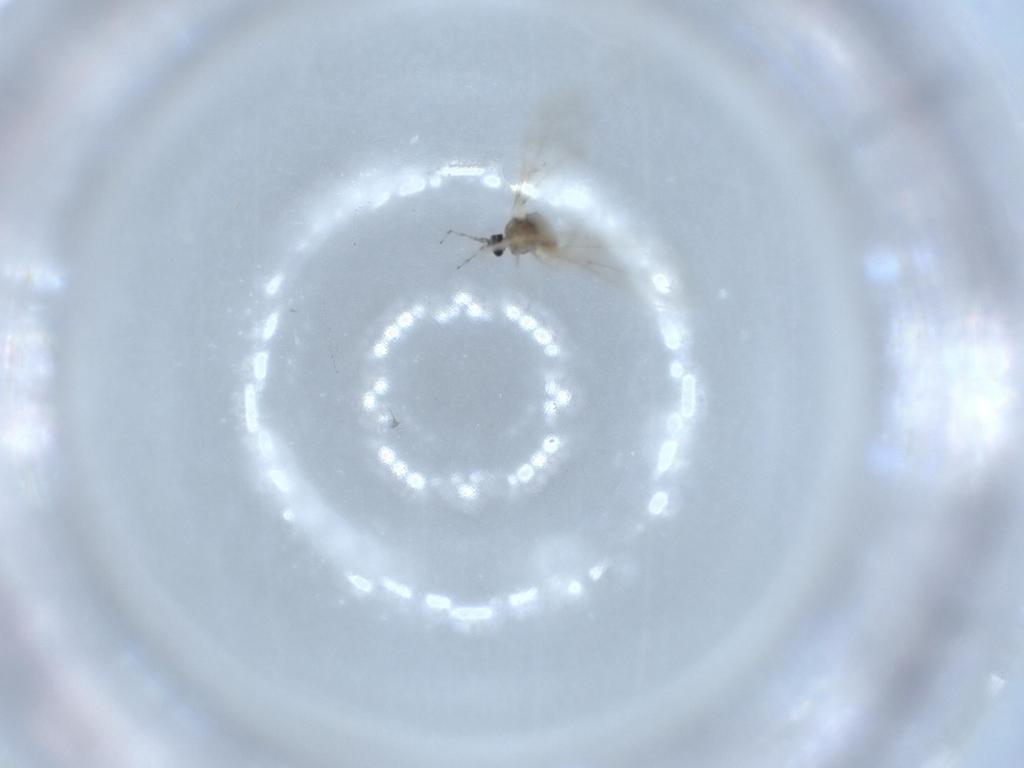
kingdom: Animalia
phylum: Arthropoda
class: Insecta
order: Diptera
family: Cecidomyiidae
